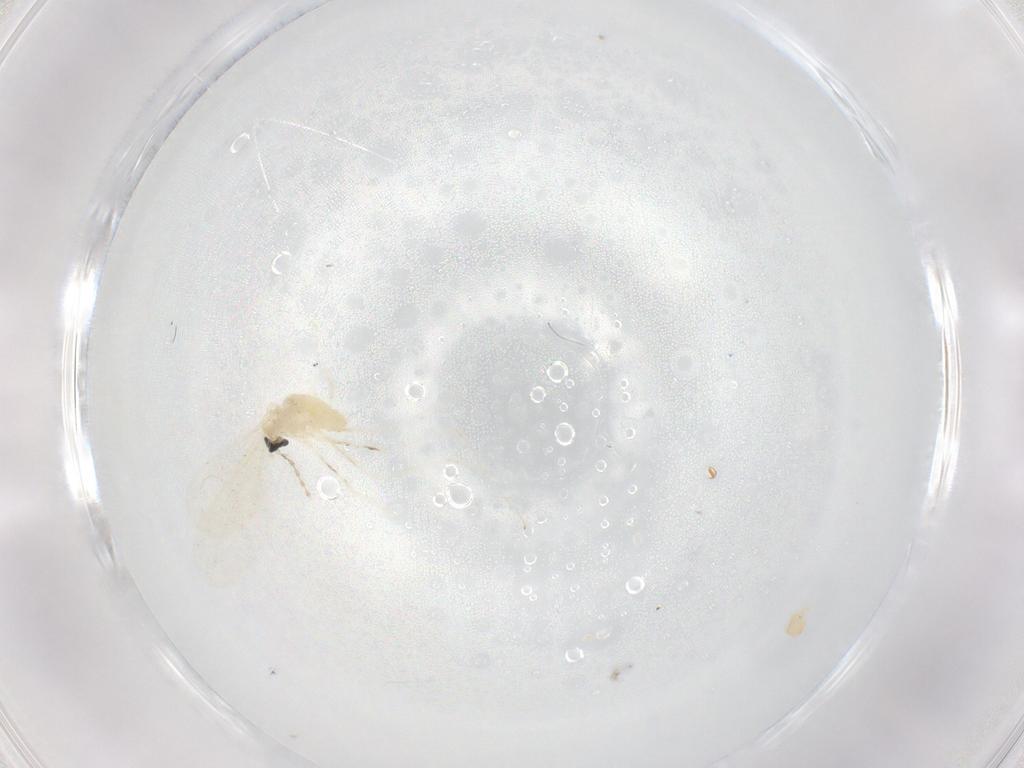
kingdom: Animalia
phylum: Arthropoda
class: Insecta
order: Diptera
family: Cecidomyiidae
